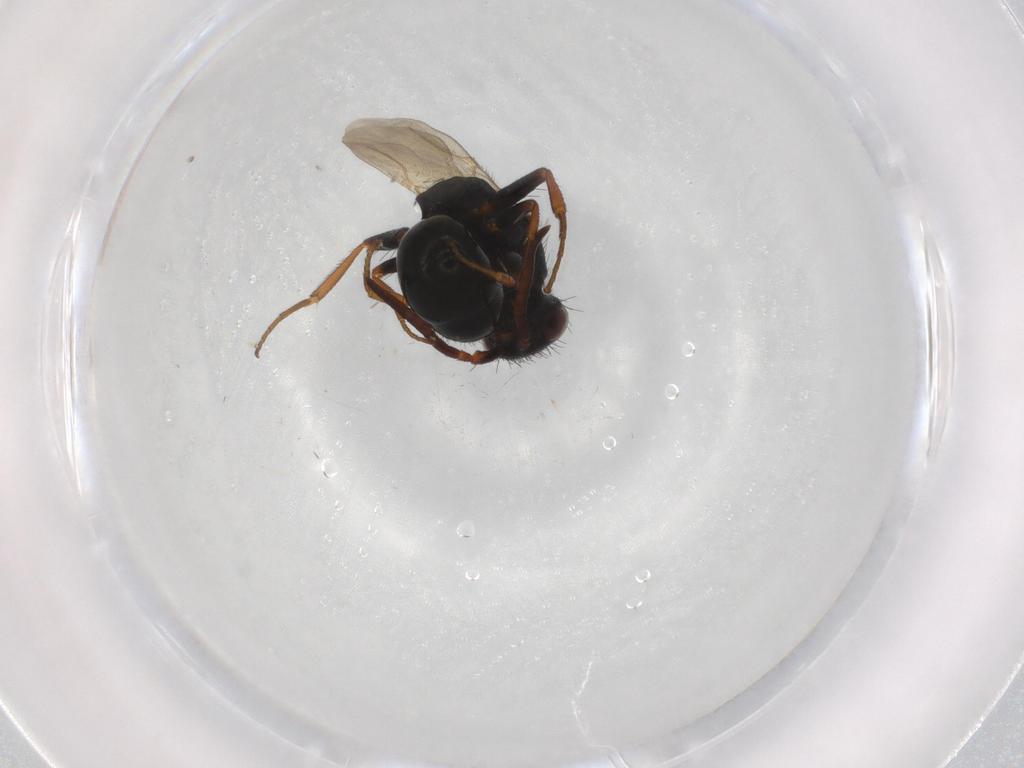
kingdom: Animalia
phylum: Arthropoda
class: Insecta
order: Hymenoptera
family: Bethylidae
